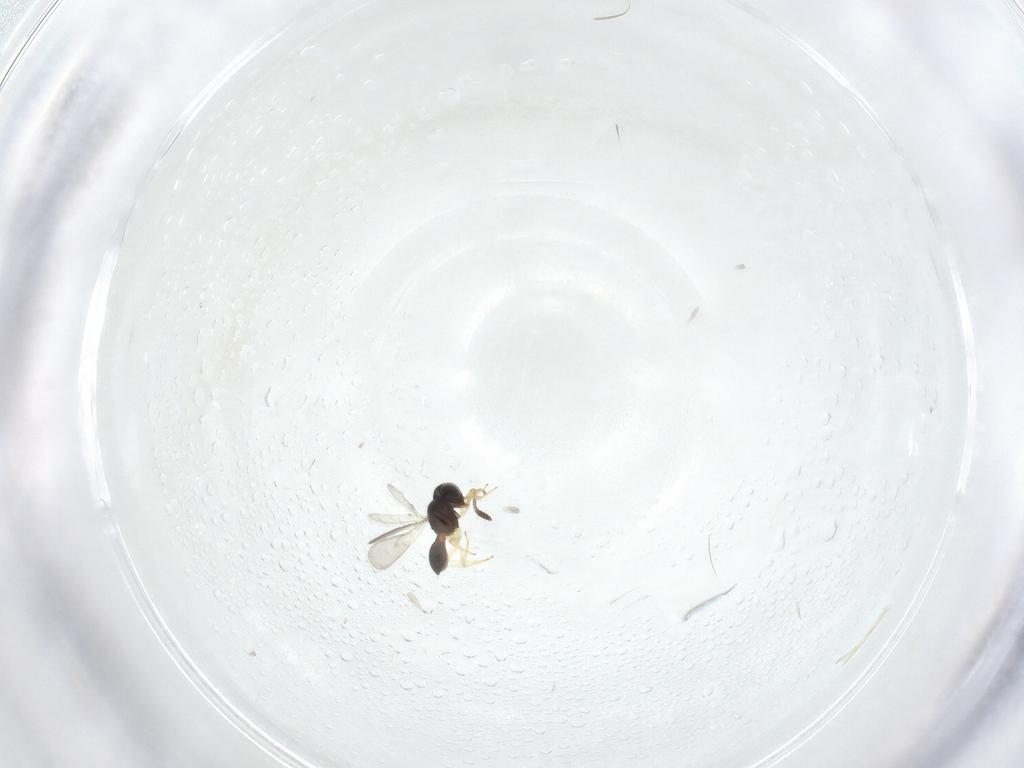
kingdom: Animalia
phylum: Arthropoda
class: Insecta
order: Hymenoptera
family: Scelionidae
